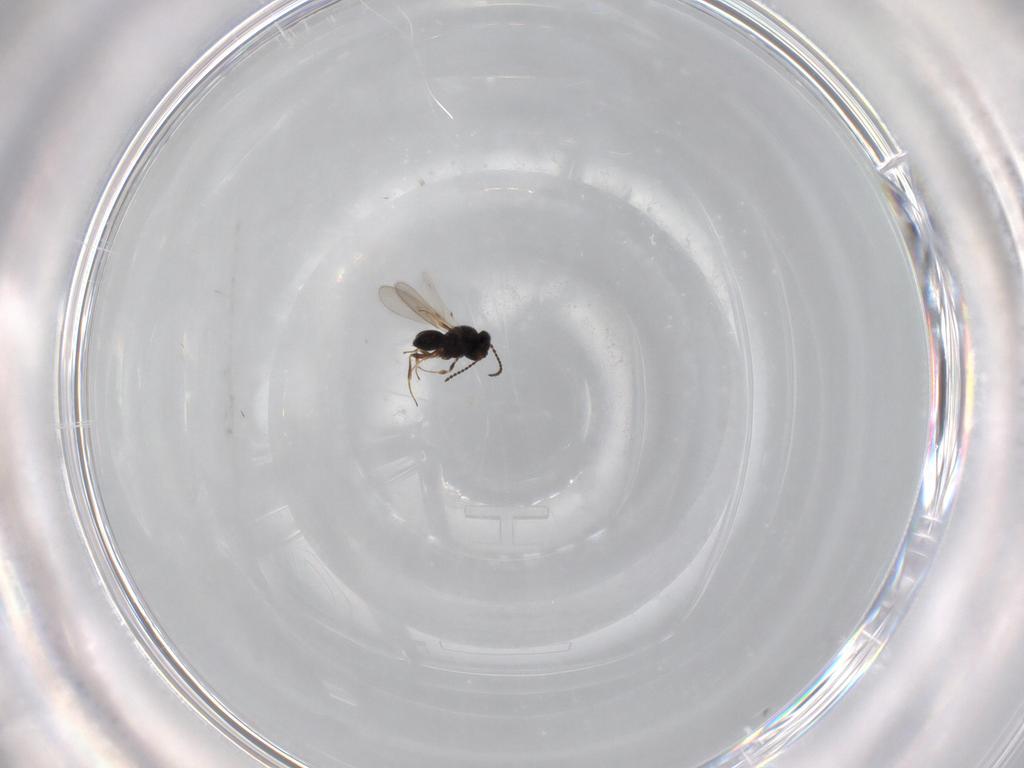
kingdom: Animalia
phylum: Arthropoda
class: Insecta
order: Hymenoptera
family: Scelionidae
